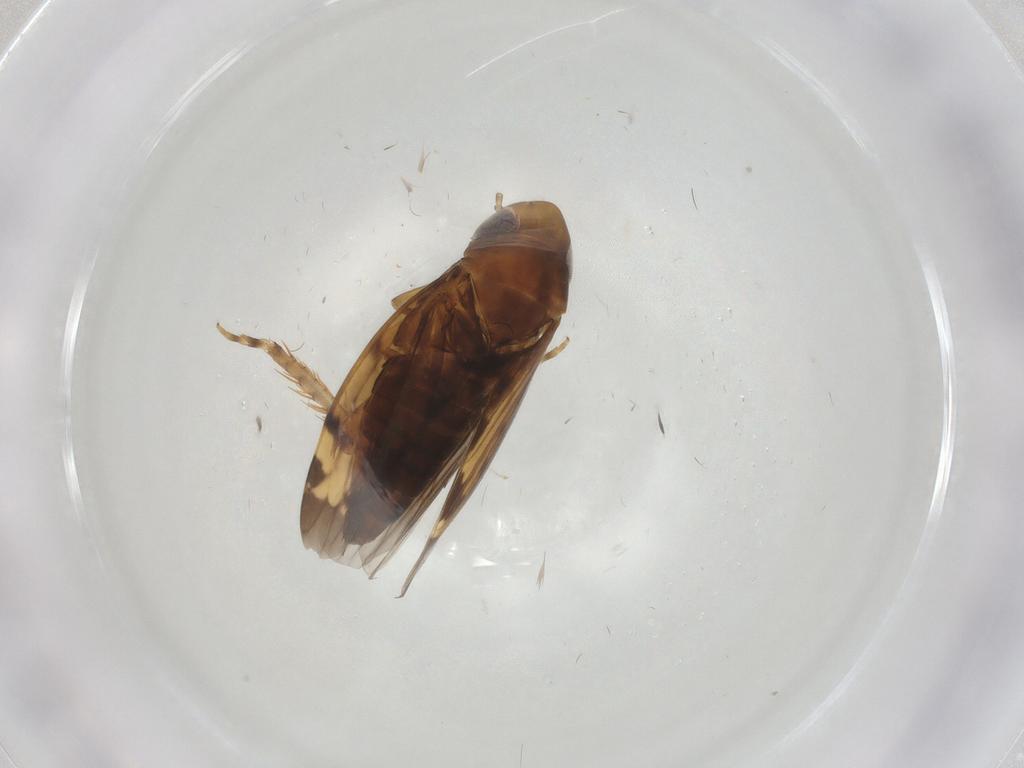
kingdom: Animalia
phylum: Arthropoda
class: Insecta
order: Hemiptera
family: Cicadellidae
